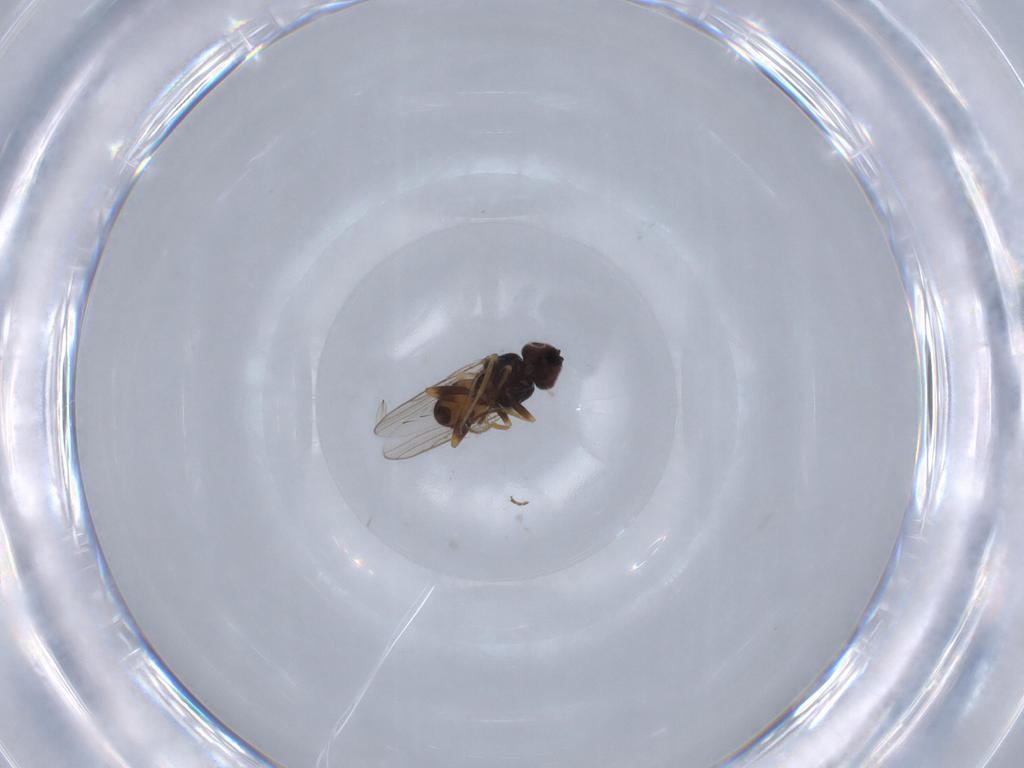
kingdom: Animalia
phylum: Arthropoda
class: Insecta
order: Diptera
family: Chloropidae
